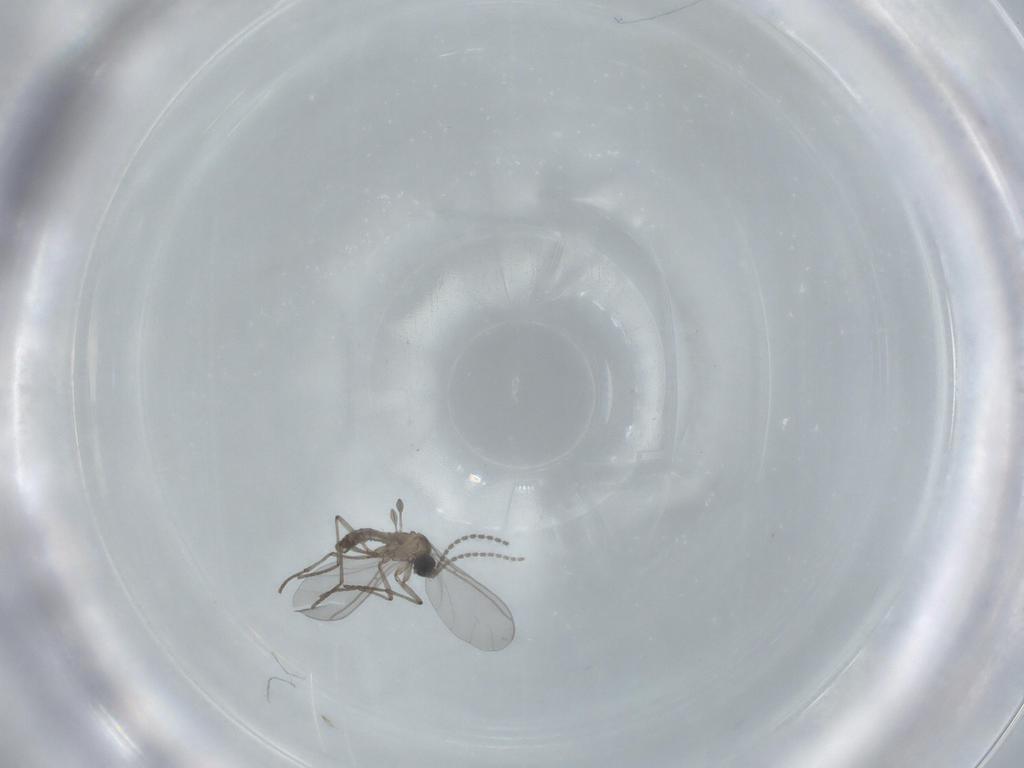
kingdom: Animalia
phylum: Arthropoda
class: Insecta
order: Diptera
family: Sciaridae
